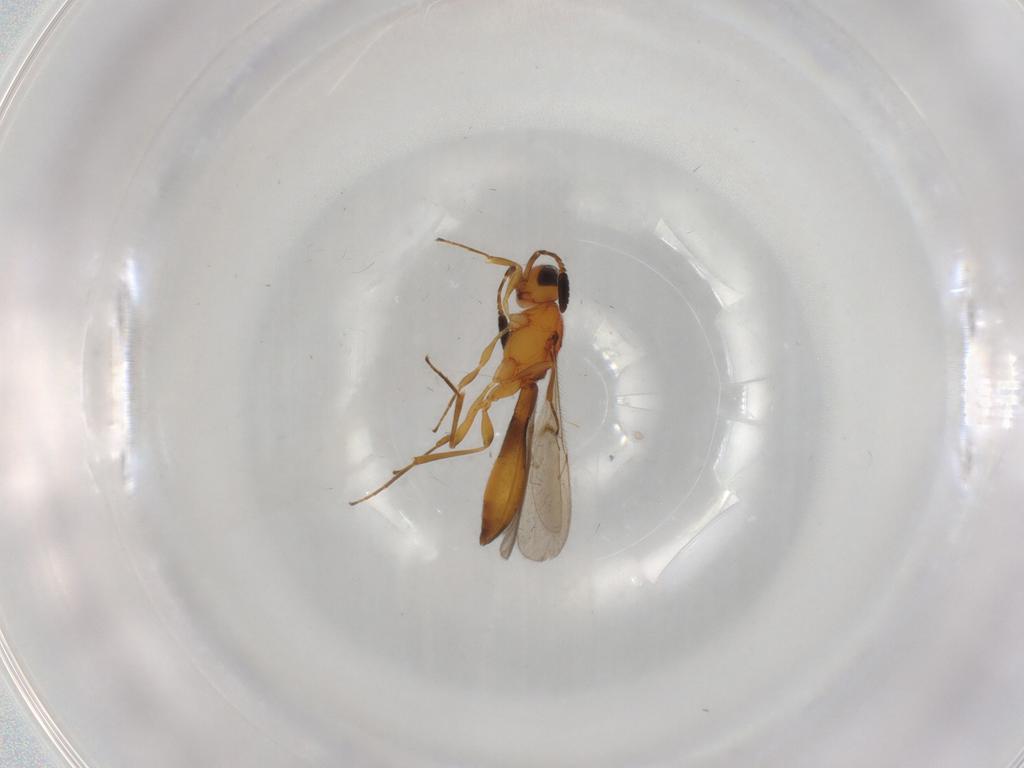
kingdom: Animalia
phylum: Arthropoda
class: Insecta
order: Hymenoptera
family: Scelionidae
